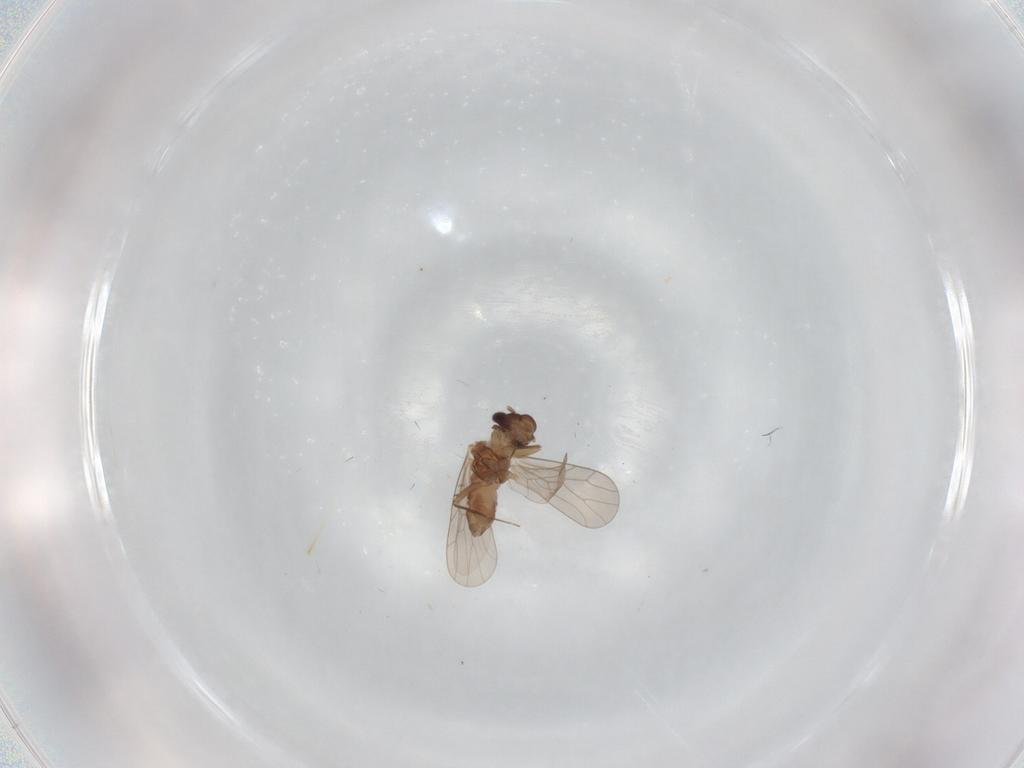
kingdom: Animalia
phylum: Arthropoda
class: Insecta
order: Psocodea
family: Lepidopsocidae
